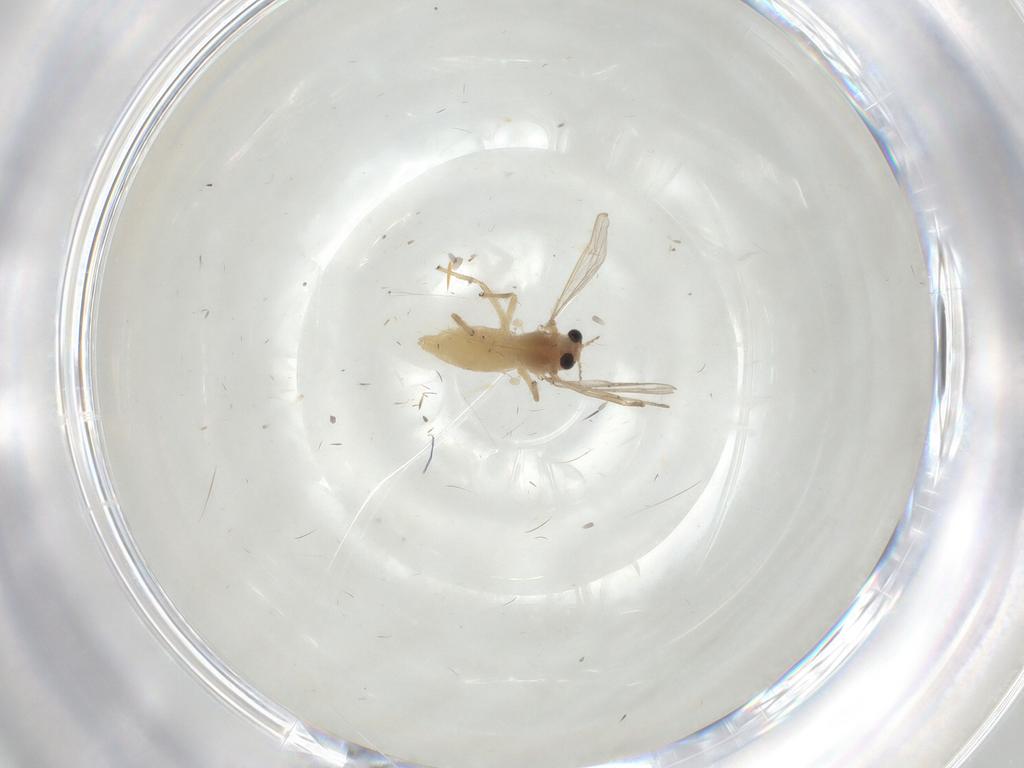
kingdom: Animalia
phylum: Arthropoda
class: Insecta
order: Diptera
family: Chironomidae
